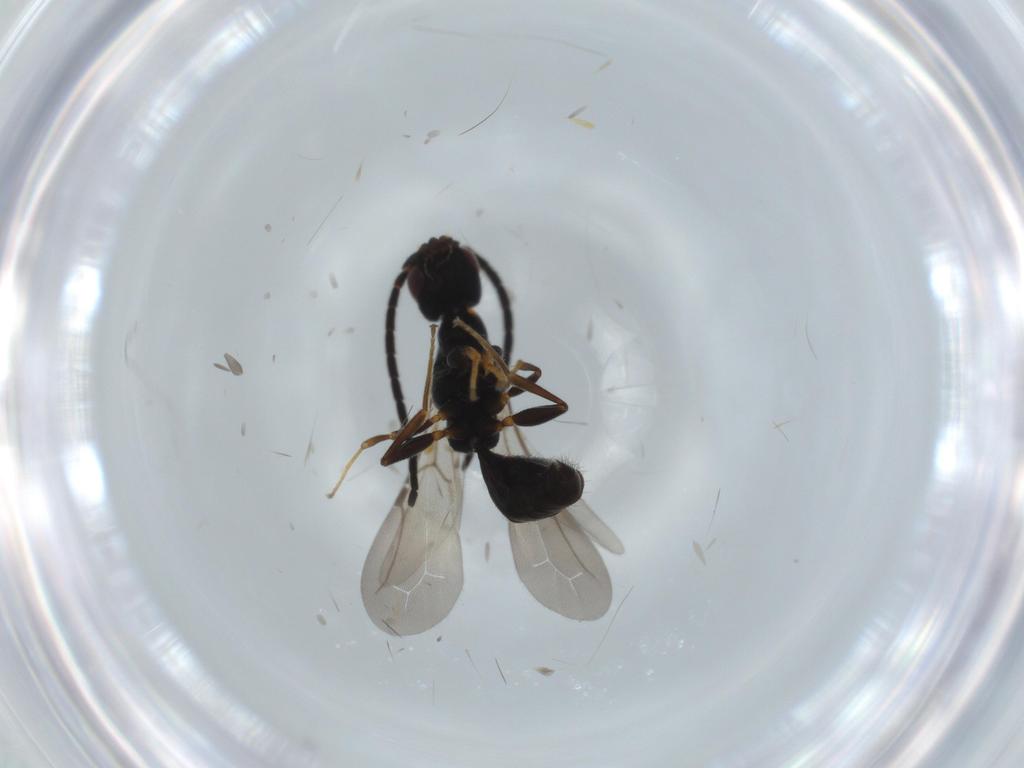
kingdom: Animalia
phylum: Arthropoda
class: Insecta
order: Hymenoptera
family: Bethylidae
